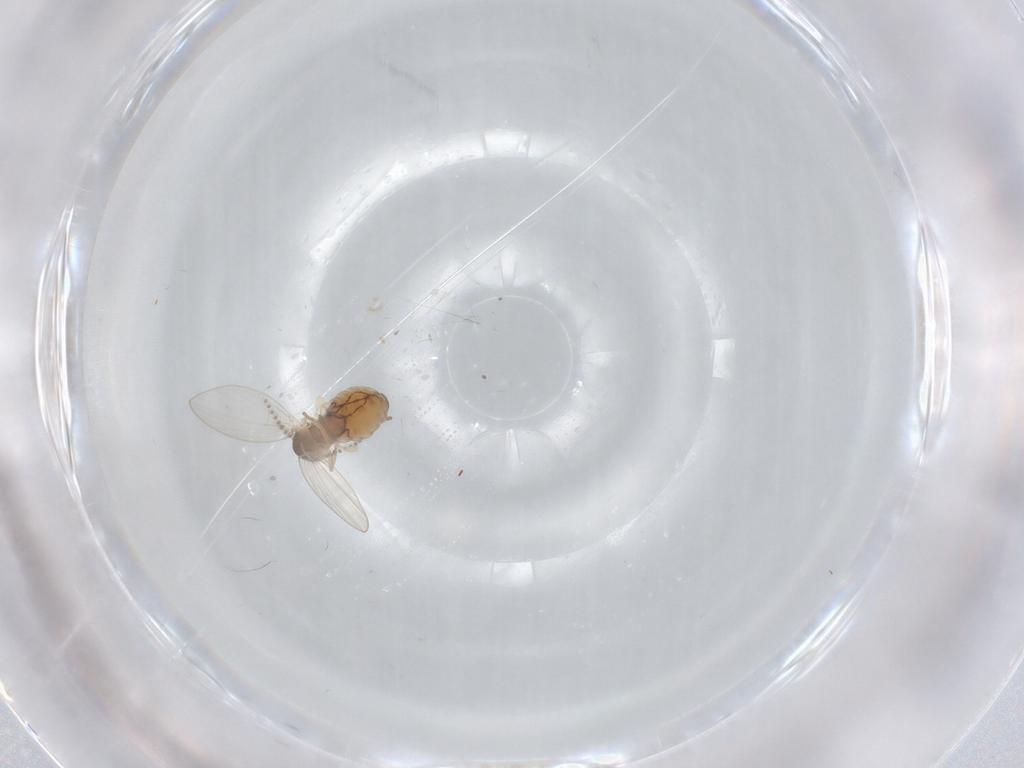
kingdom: Animalia
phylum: Arthropoda
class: Insecta
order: Diptera
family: Psychodidae
